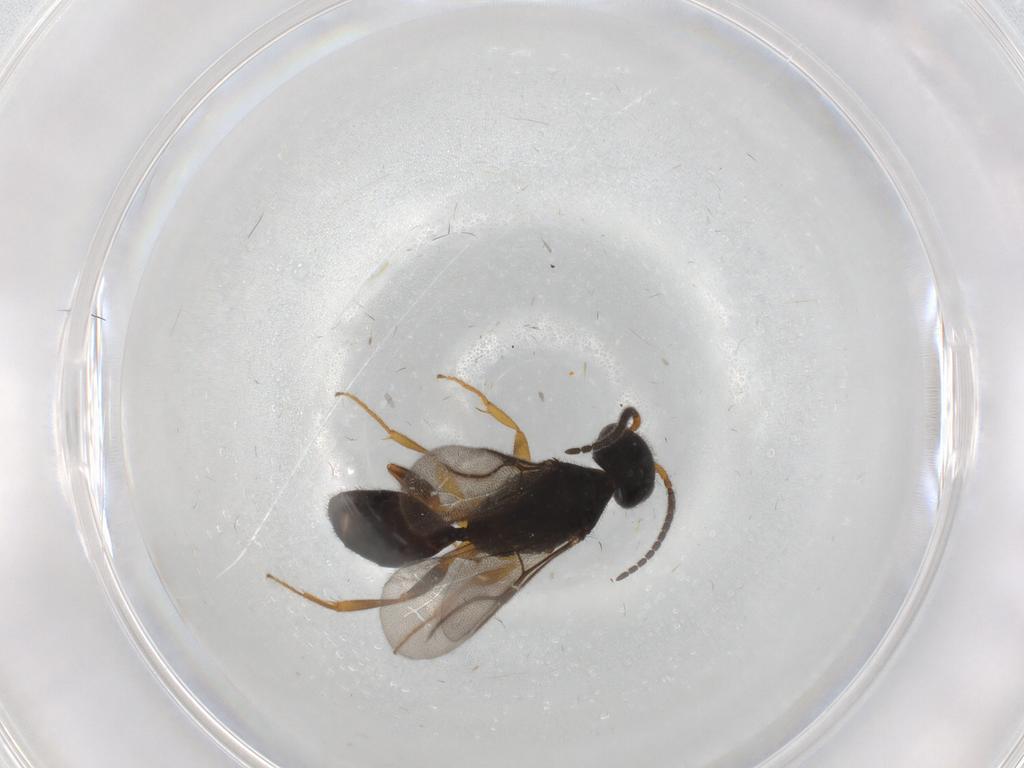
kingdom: Animalia
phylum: Arthropoda
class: Insecta
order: Hymenoptera
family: Bethylidae
